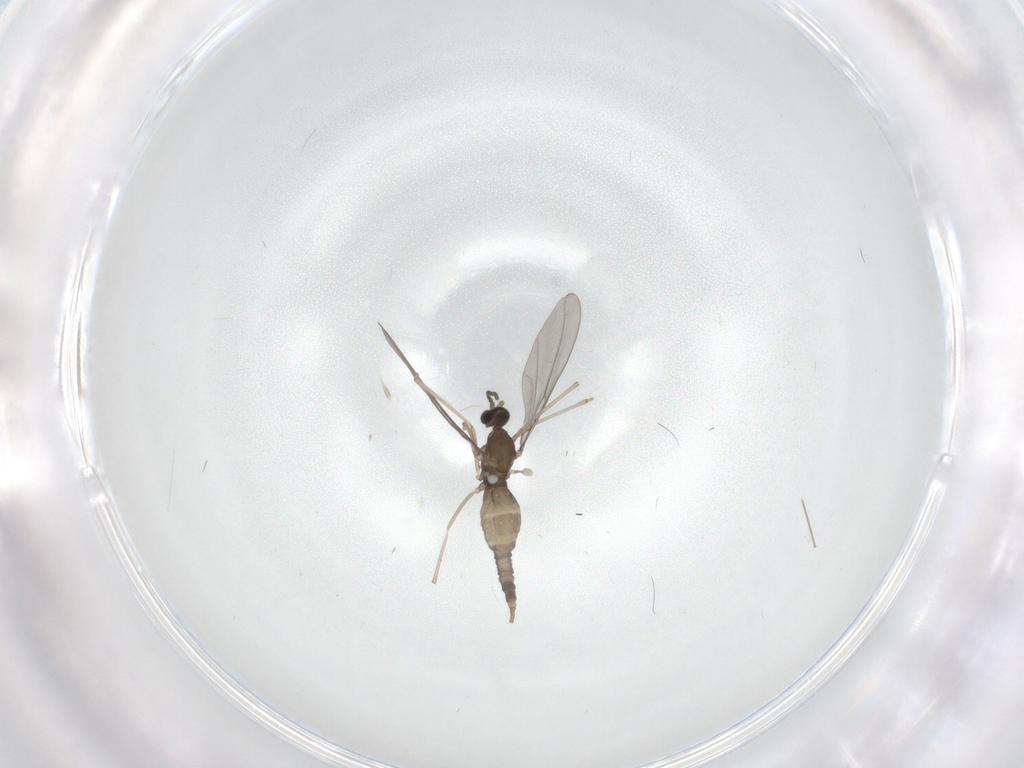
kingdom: Animalia
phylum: Arthropoda
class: Insecta
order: Diptera
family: Cecidomyiidae
